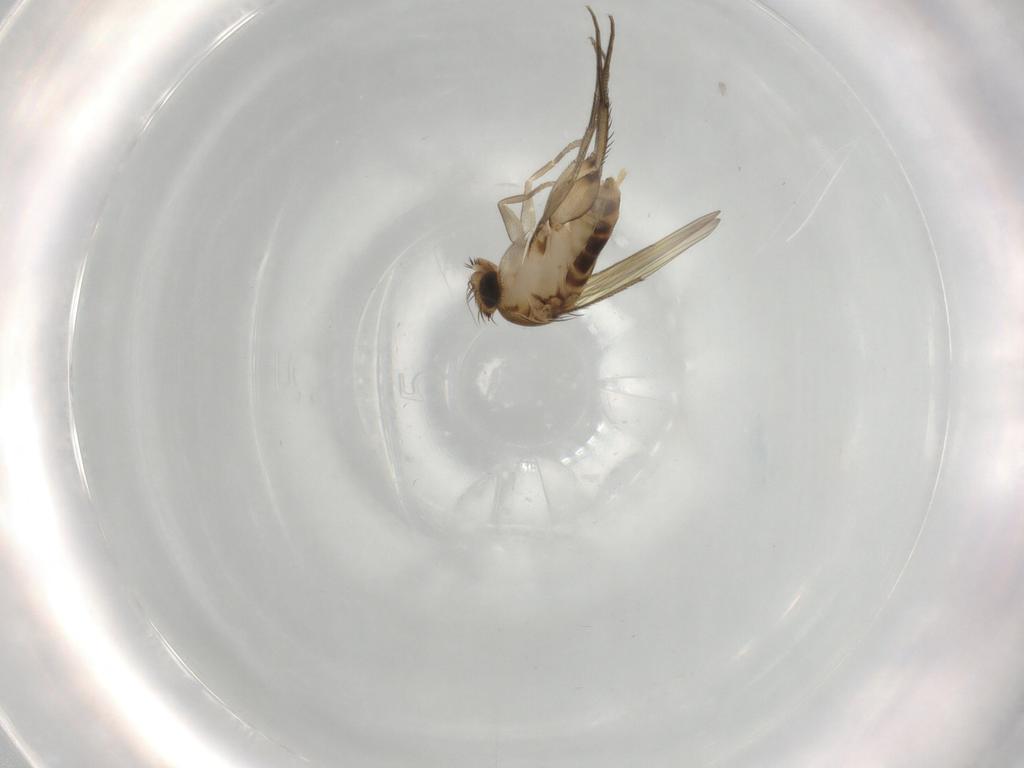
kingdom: Animalia
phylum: Arthropoda
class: Insecta
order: Diptera
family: Phoridae
